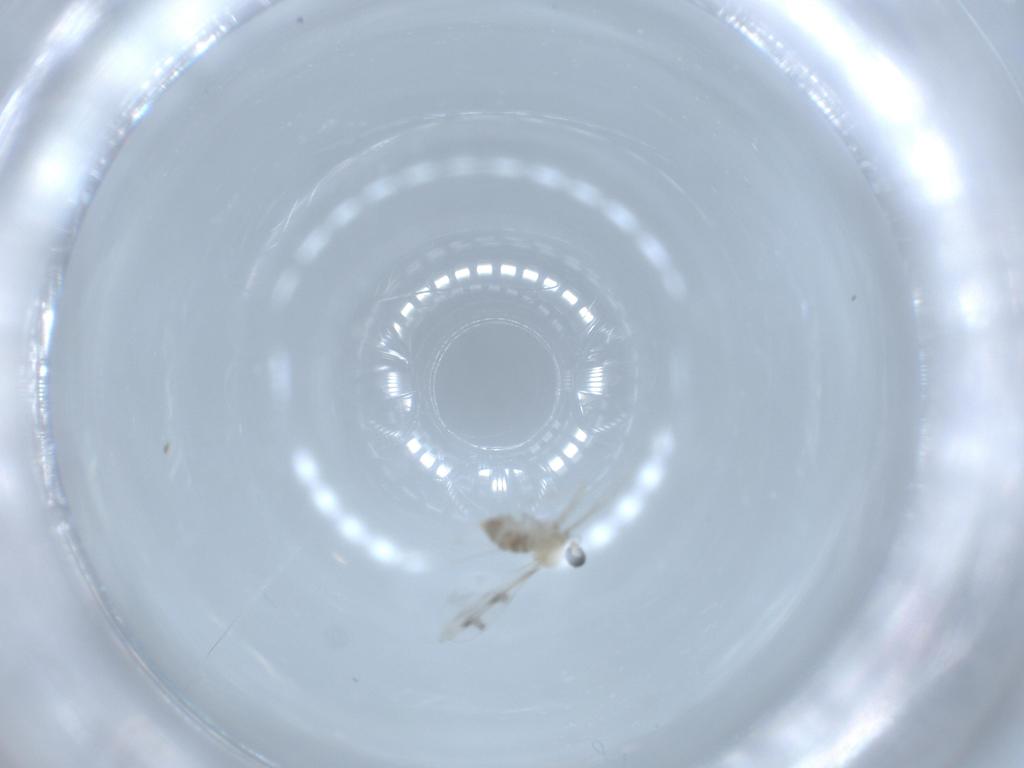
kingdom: Animalia
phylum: Arthropoda
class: Insecta
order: Diptera
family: Cecidomyiidae
